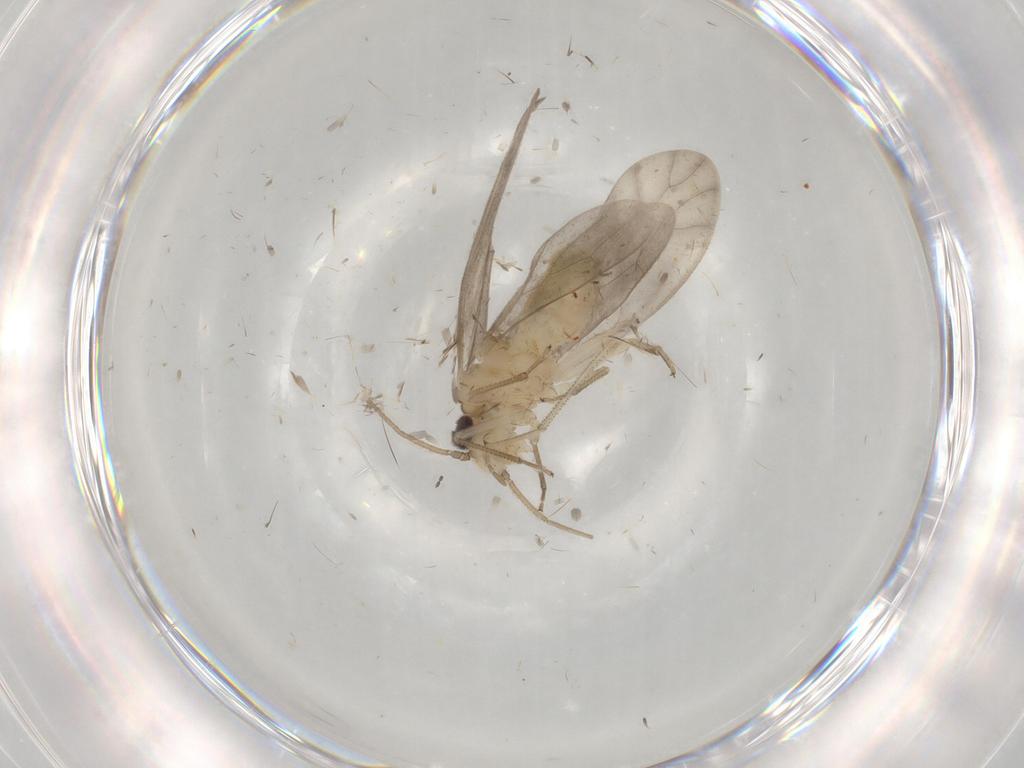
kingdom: Animalia
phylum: Arthropoda
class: Insecta
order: Psocodea
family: Caeciliusidae
